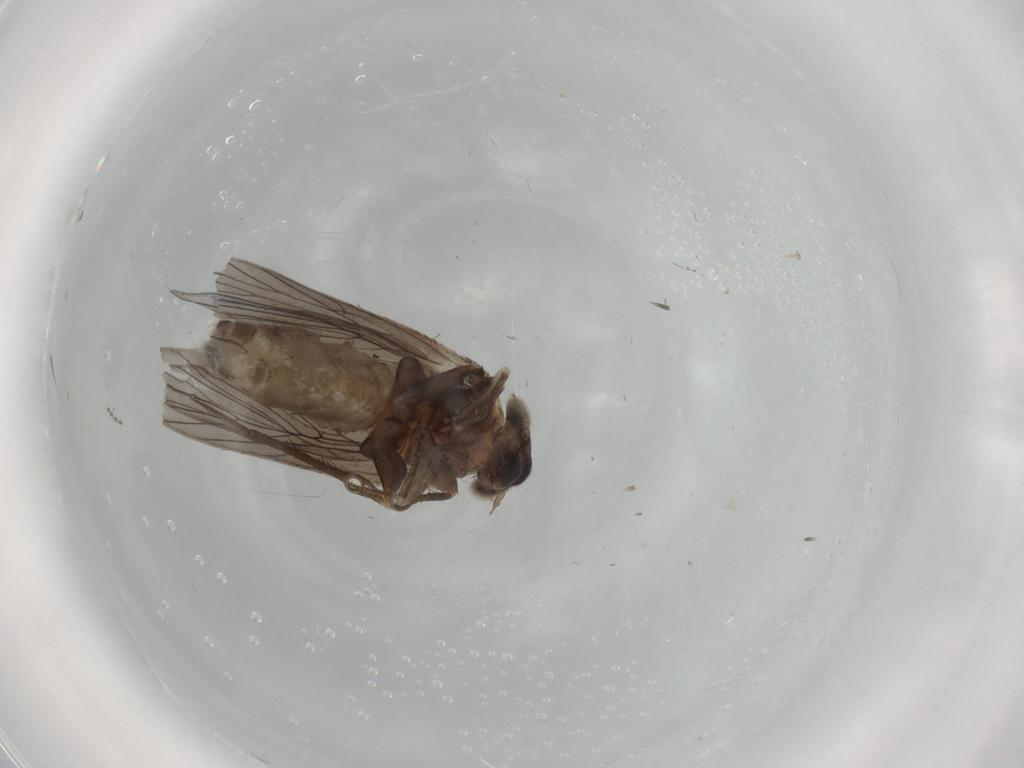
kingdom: Animalia
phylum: Arthropoda
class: Insecta
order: Psocodea
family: Lepidopsocidae
